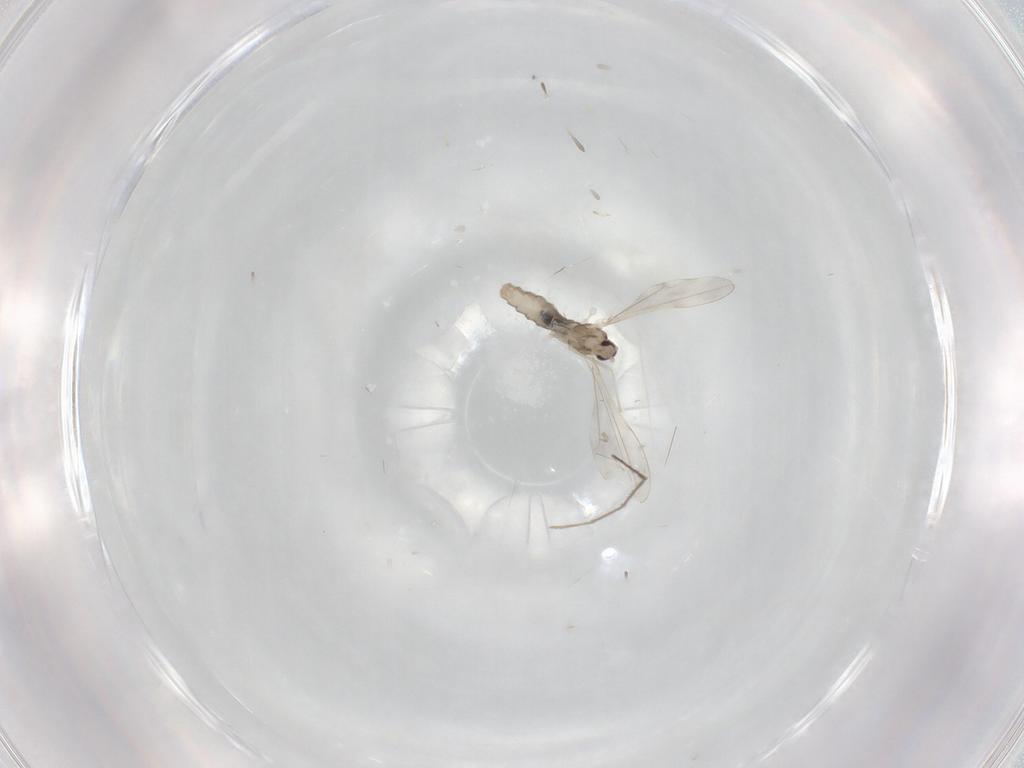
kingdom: Animalia
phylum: Arthropoda
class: Insecta
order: Diptera
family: Cecidomyiidae
